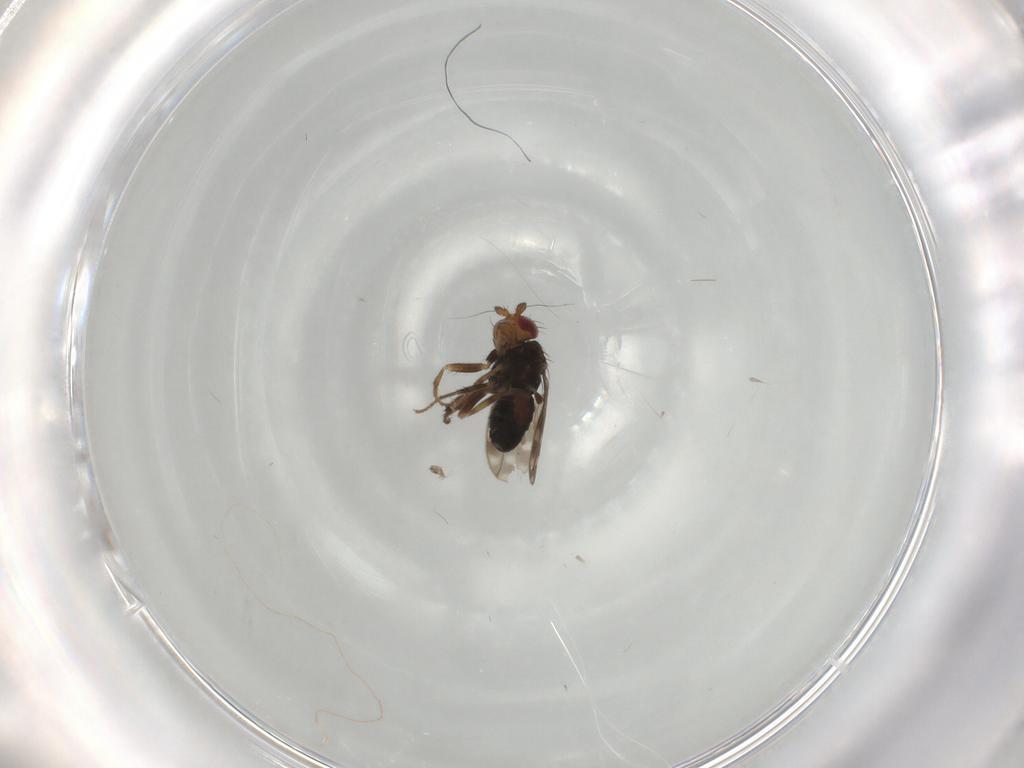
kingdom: Animalia
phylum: Arthropoda
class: Insecta
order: Diptera
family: Sphaeroceridae
